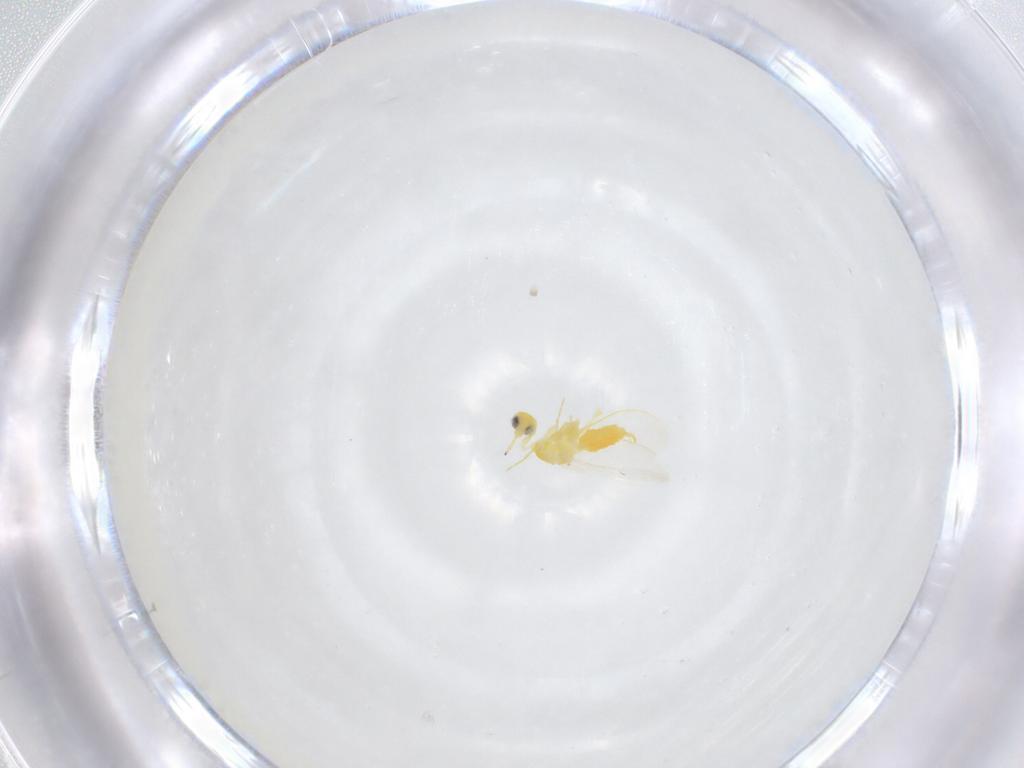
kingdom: Animalia
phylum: Arthropoda
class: Insecta
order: Hemiptera
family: Aleyrodidae
